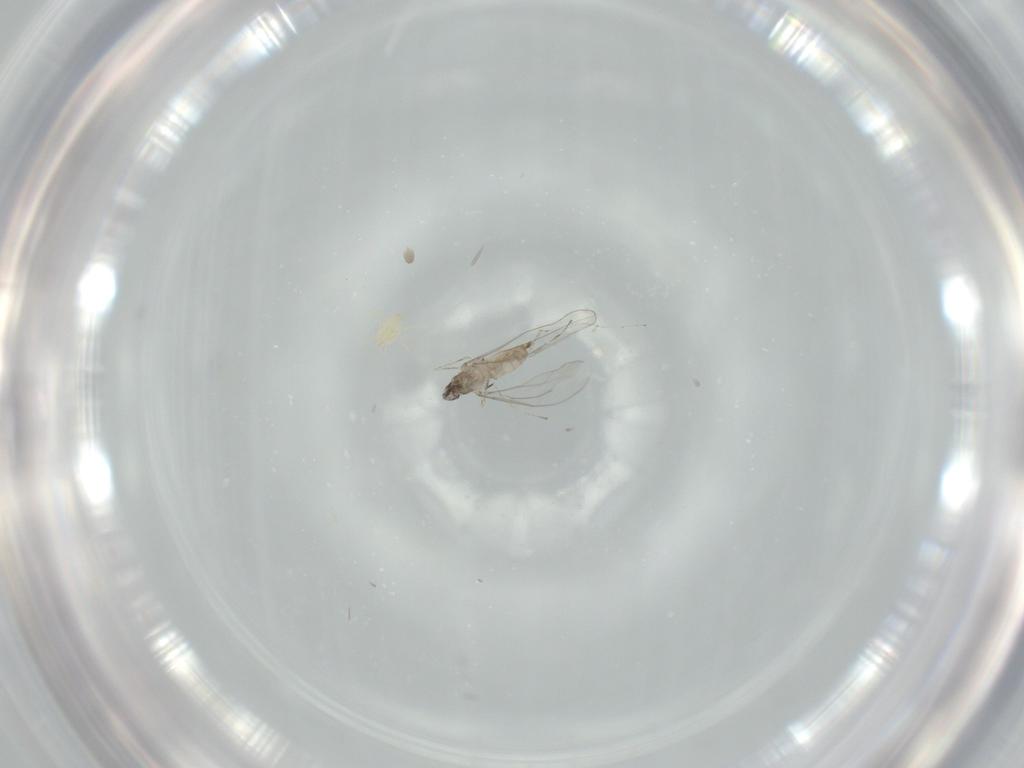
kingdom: Animalia
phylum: Arthropoda
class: Insecta
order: Diptera
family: Cecidomyiidae
